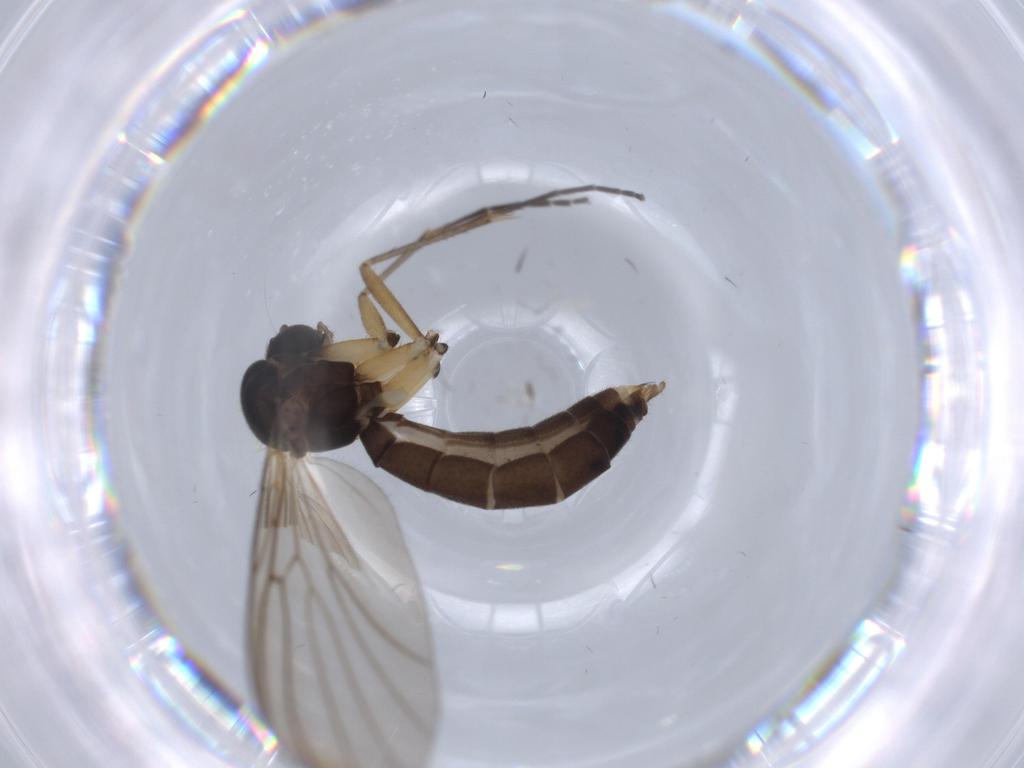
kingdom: Animalia
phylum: Arthropoda
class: Insecta
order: Diptera
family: Mycetophilidae
